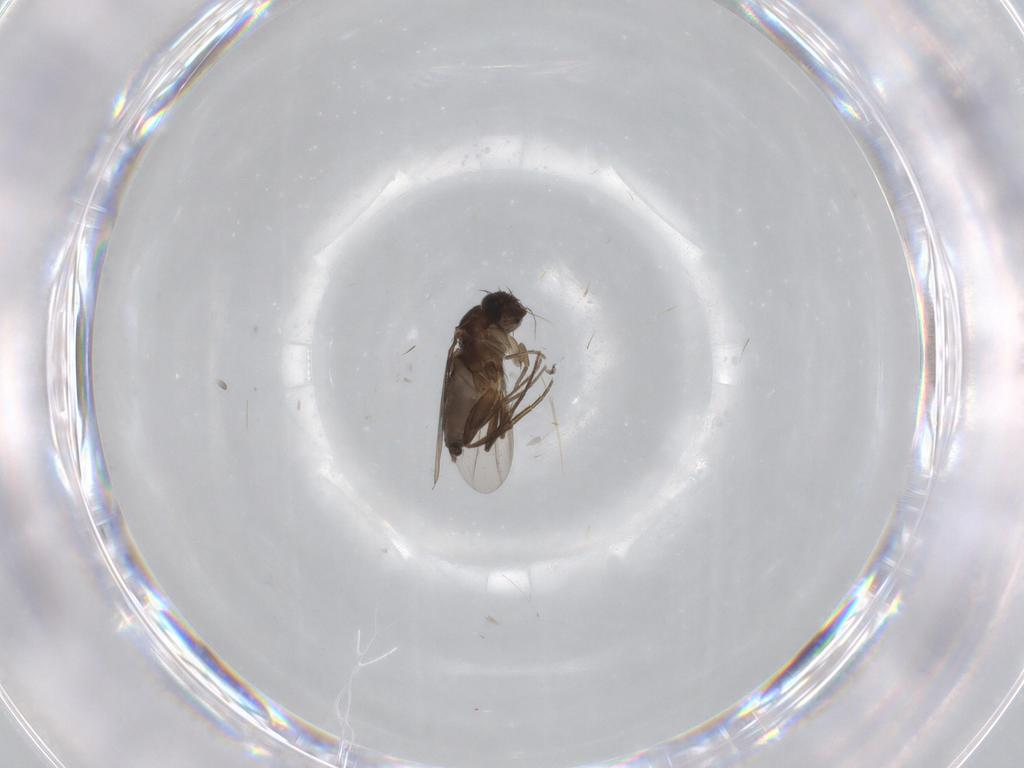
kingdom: Animalia
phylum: Arthropoda
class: Insecta
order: Diptera
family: Phoridae
